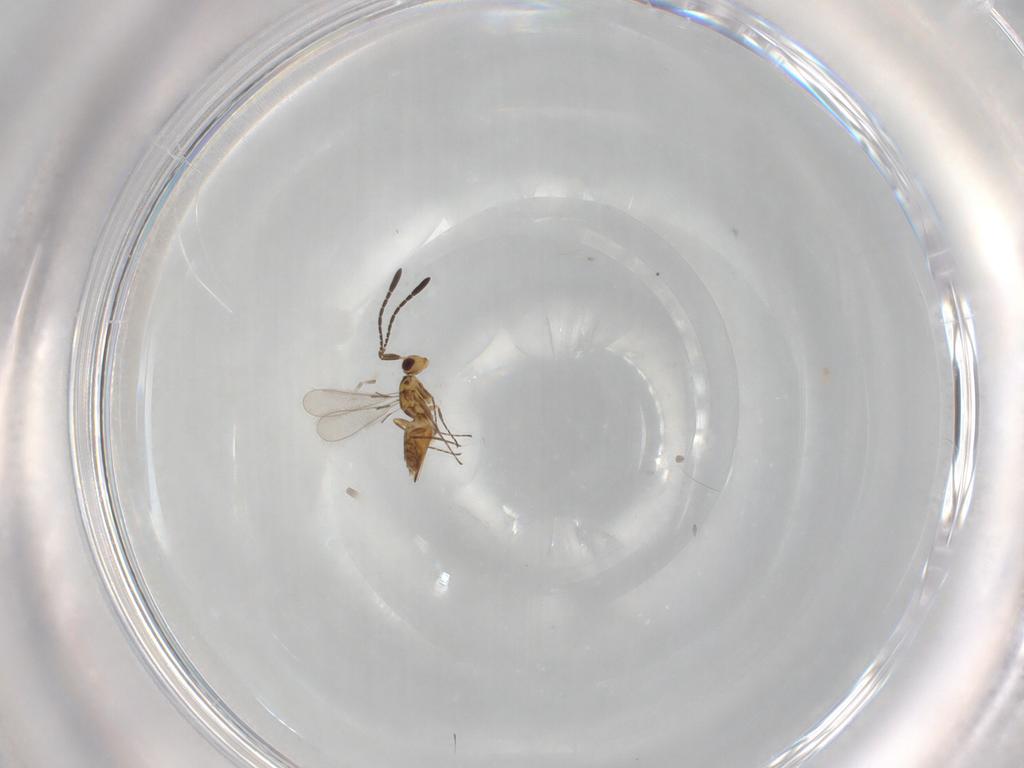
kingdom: Animalia
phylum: Arthropoda
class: Insecta
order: Hymenoptera
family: Mymaridae
